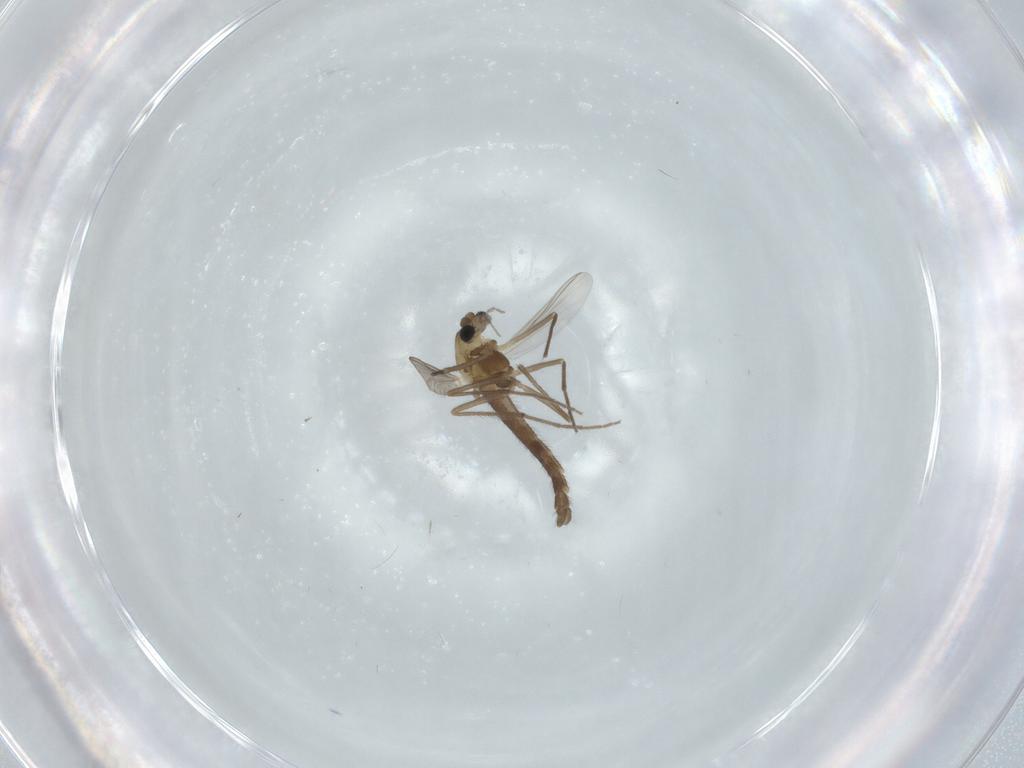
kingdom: Animalia
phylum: Arthropoda
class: Insecta
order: Diptera
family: Chironomidae
